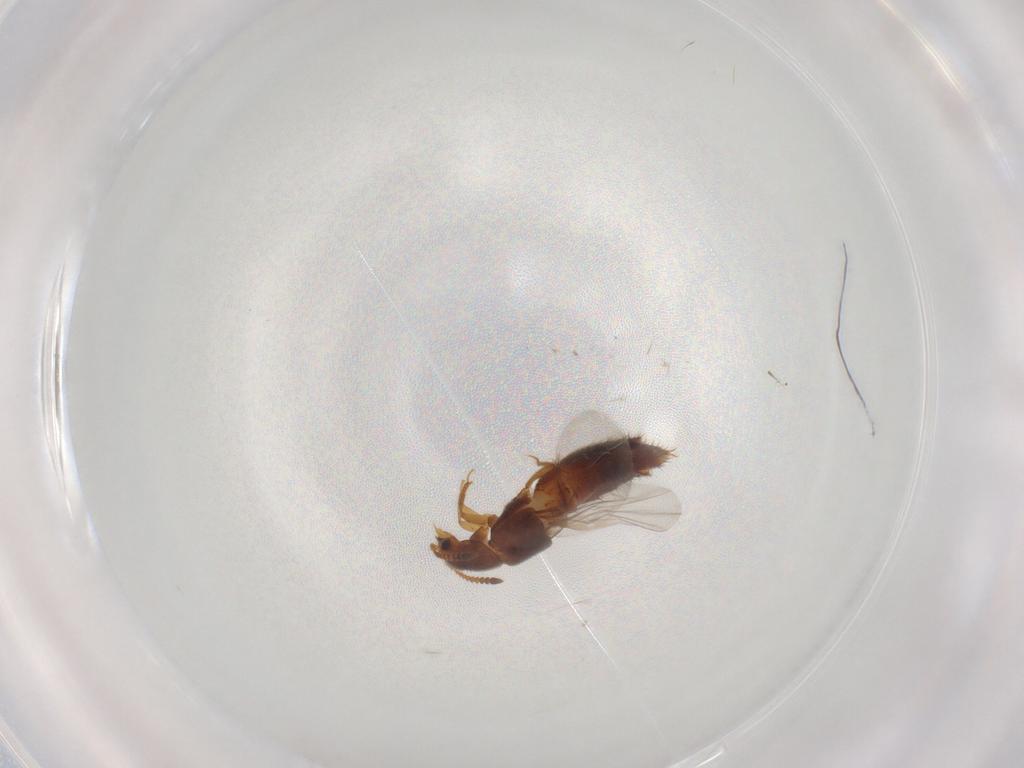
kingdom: Animalia
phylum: Arthropoda
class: Insecta
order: Coleoptera
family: Staphylinidae
